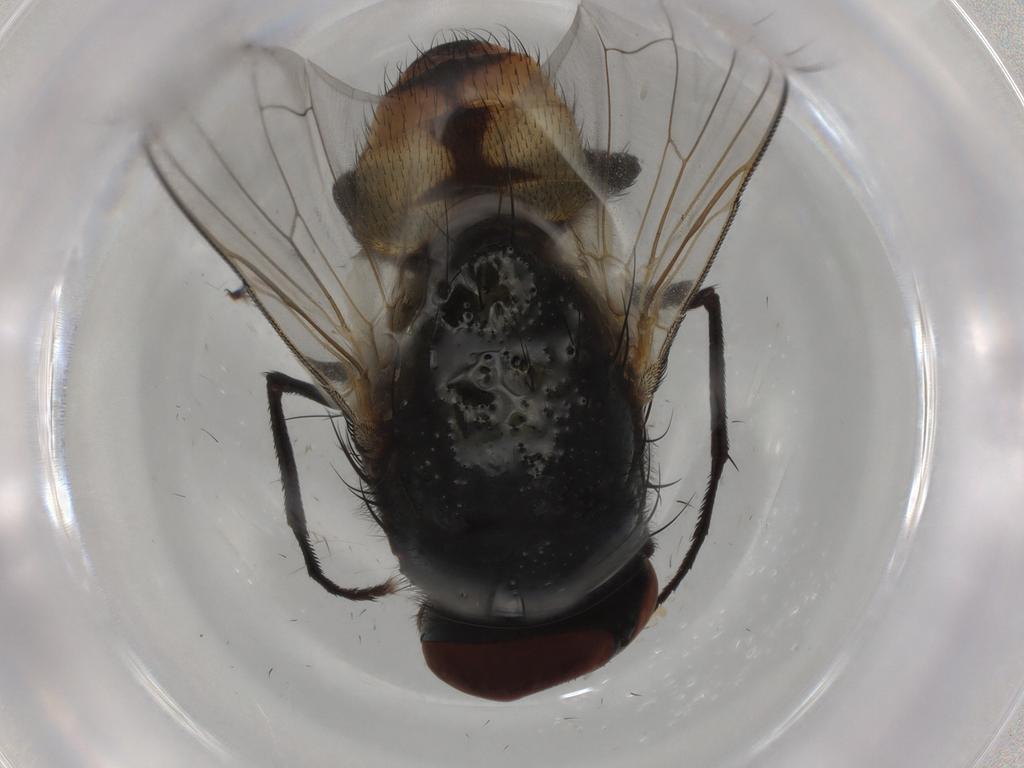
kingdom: Animalia
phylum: Arthropoda
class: Insecta
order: Diptera
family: Muscidae
